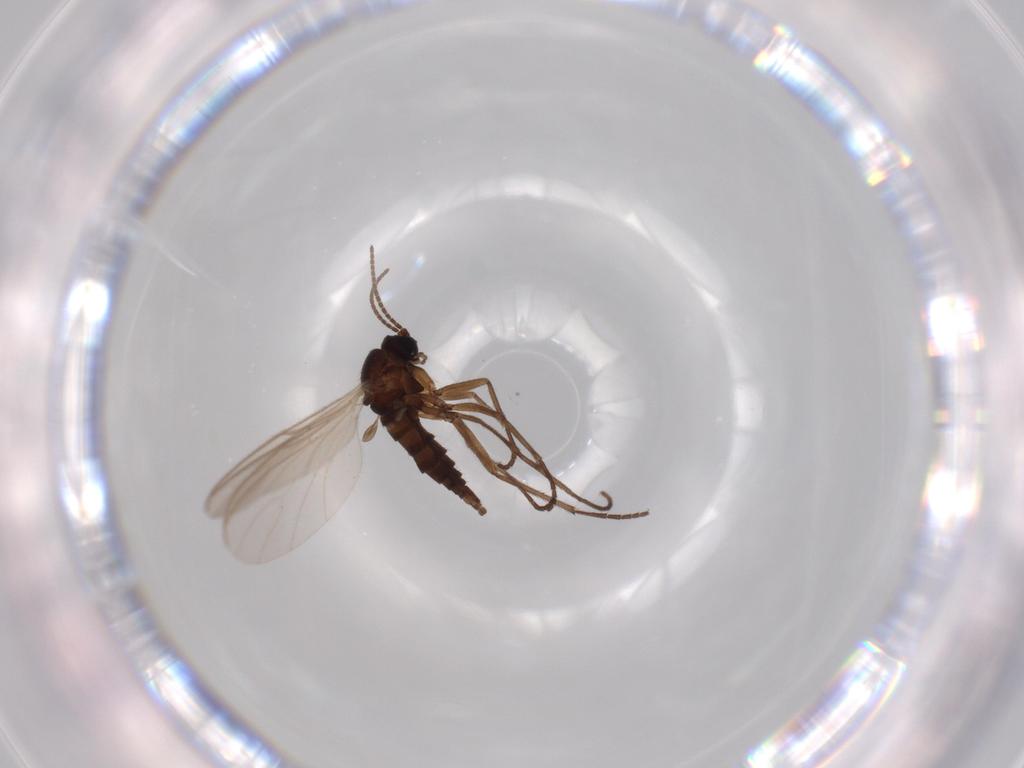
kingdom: Animalia
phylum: Arthropoda
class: Insecta
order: Diptera
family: Sciaridae
